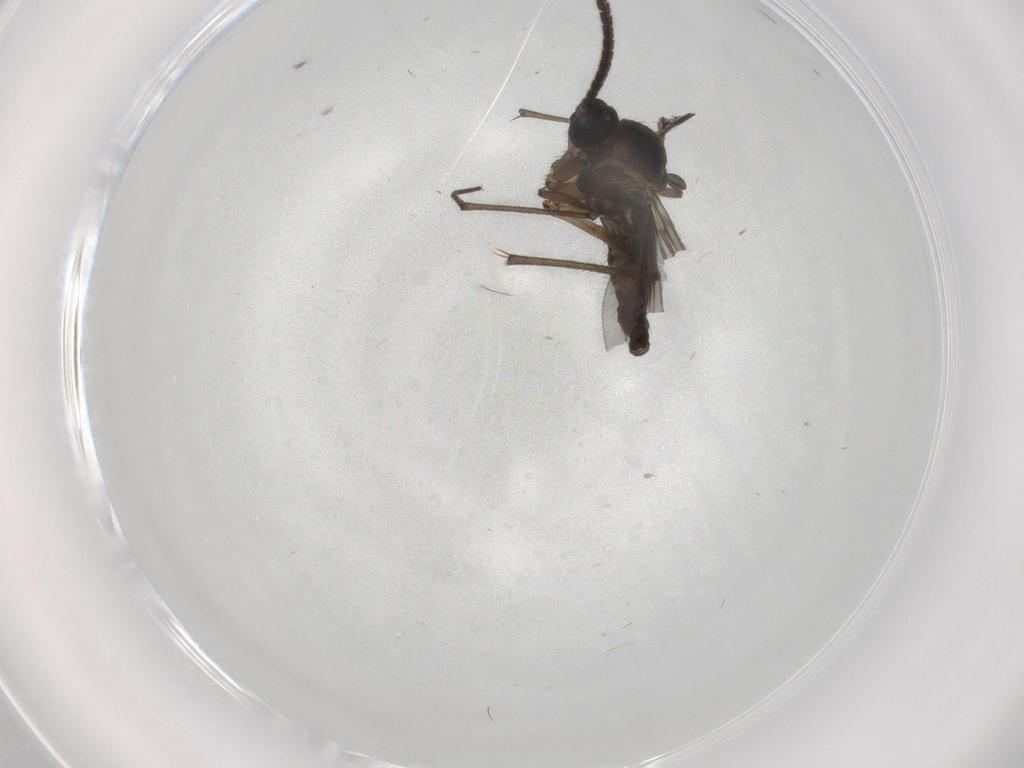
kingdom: Animalia
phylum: Arthropoda
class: Insecta
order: Diptera
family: Sciaridae
